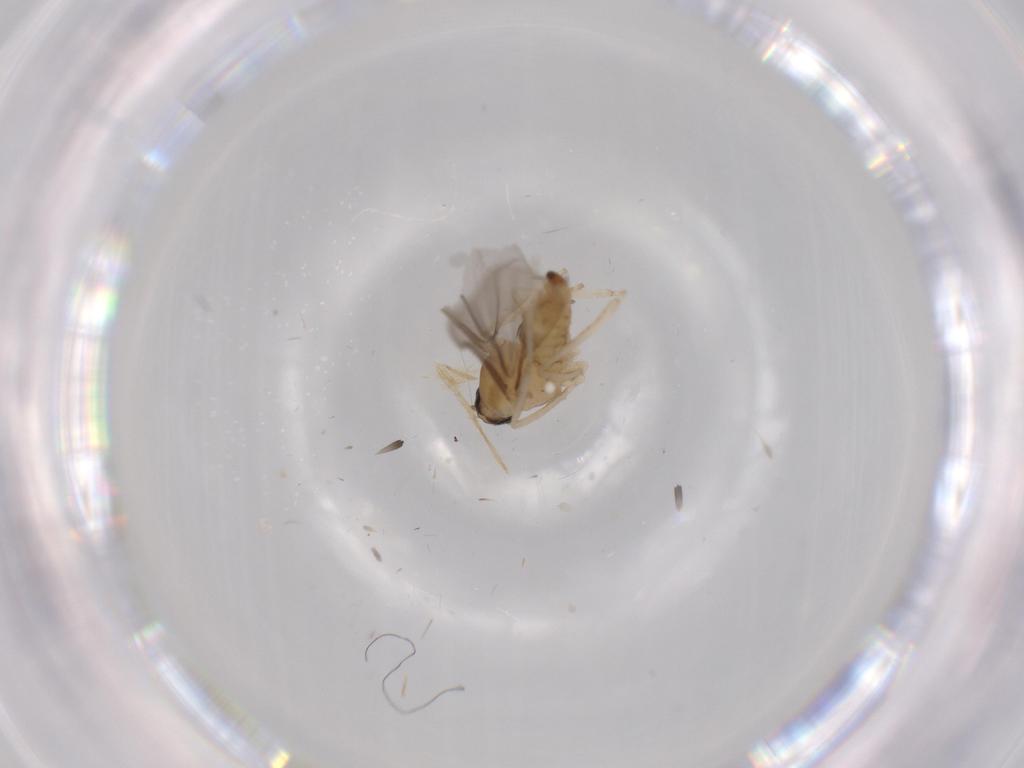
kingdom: Animalia
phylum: Arthropoda
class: Insecta
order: Diptera
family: Cecidomyiidae
